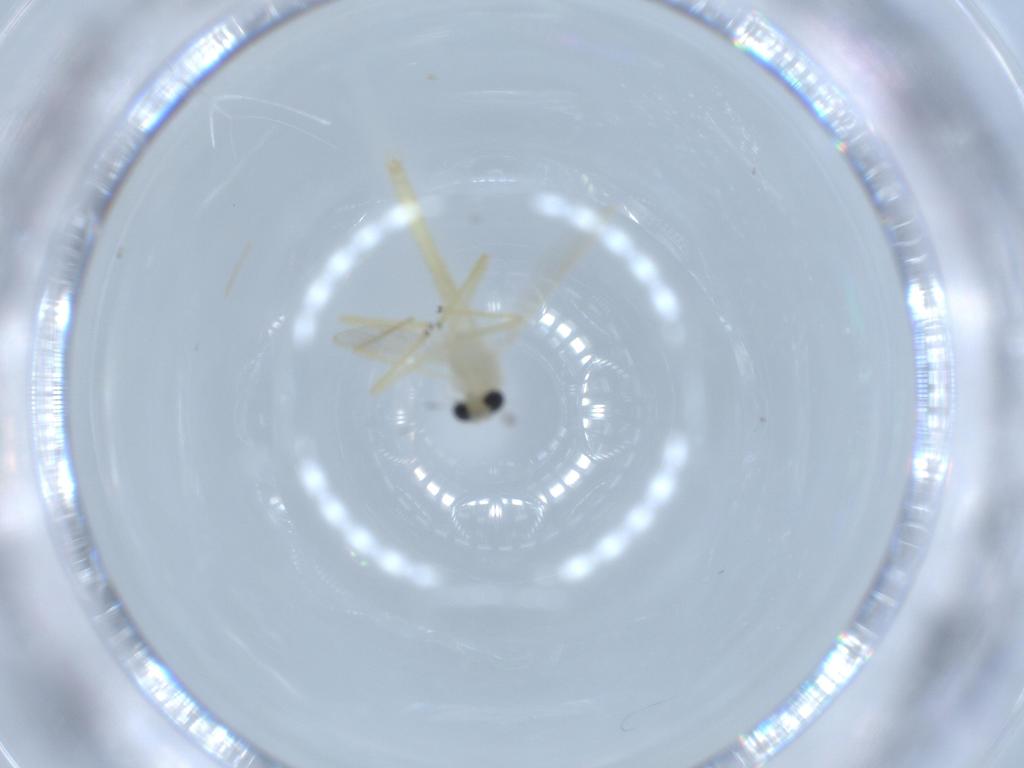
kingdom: Animalia
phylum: Arthropoda
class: Insecta
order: Diptera
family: Chironomidae
